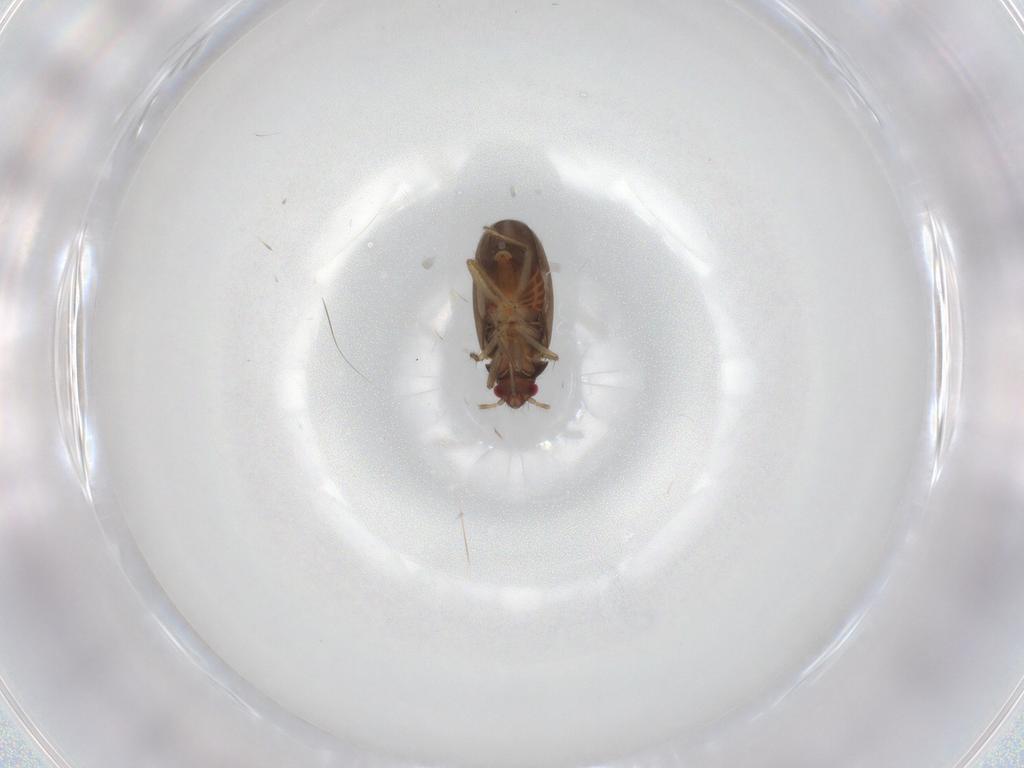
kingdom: Animalia
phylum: Arthropoda
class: Insecta
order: Hemiptera
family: Ceratocombidae
